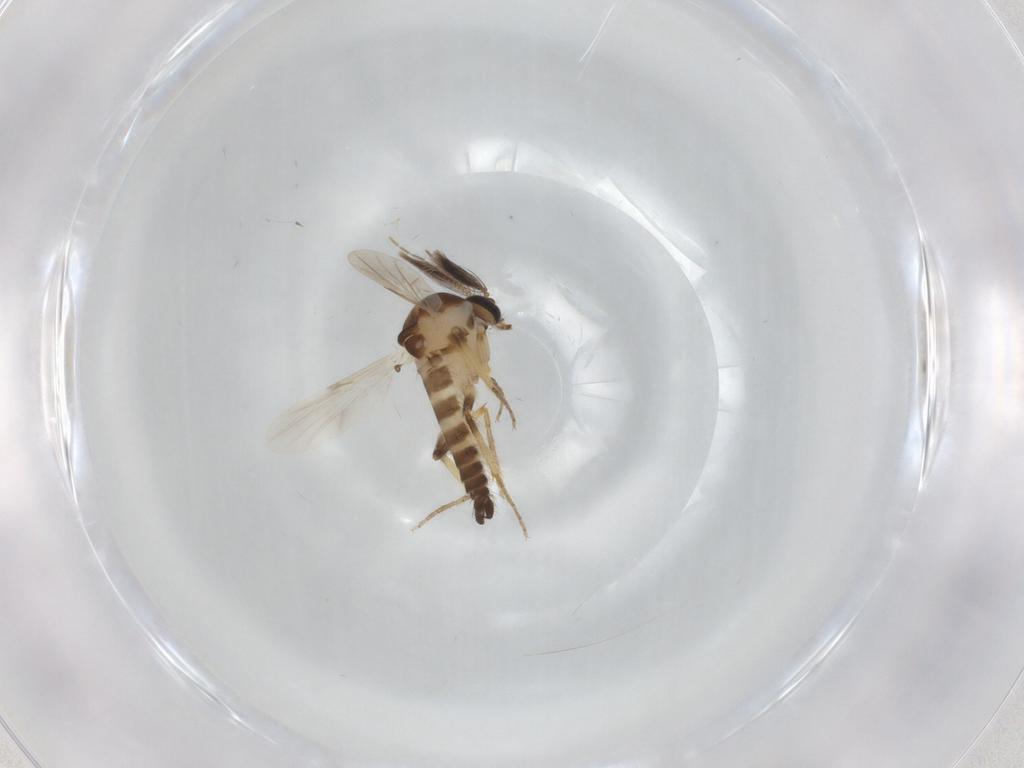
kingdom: Animalia
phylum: Arthropoda
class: Insecta
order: Diptera
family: Ceratopogonidae
